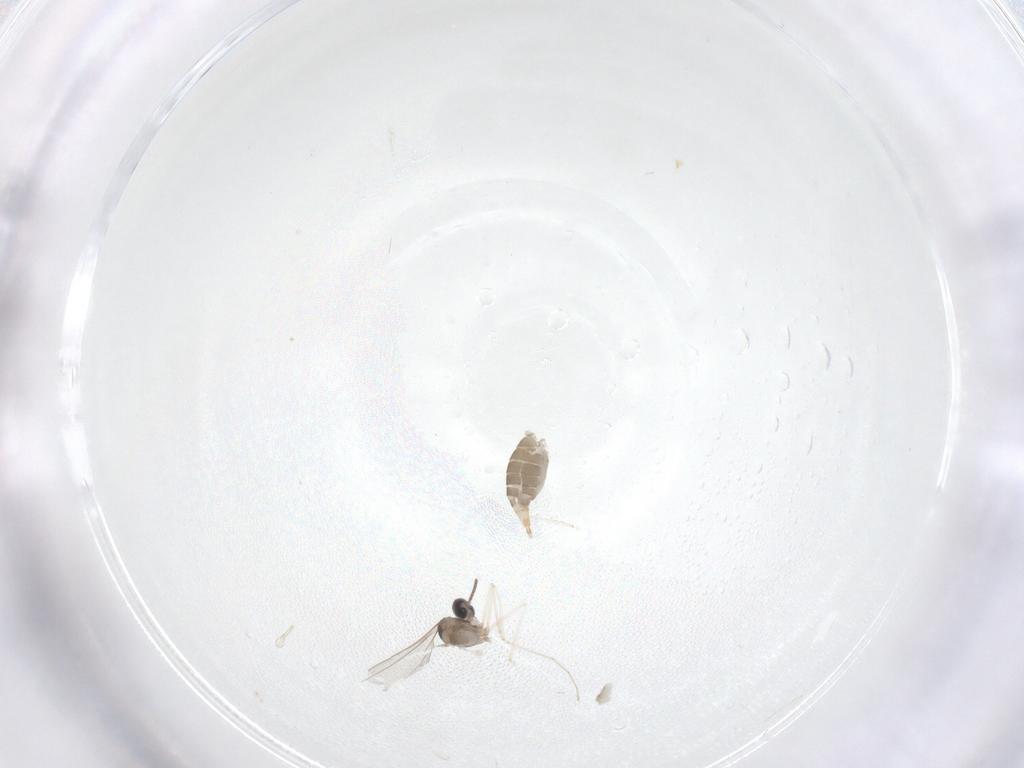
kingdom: Animalia
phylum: Arthropoda
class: Insecta
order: Diptera
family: Cecidomyiidae
